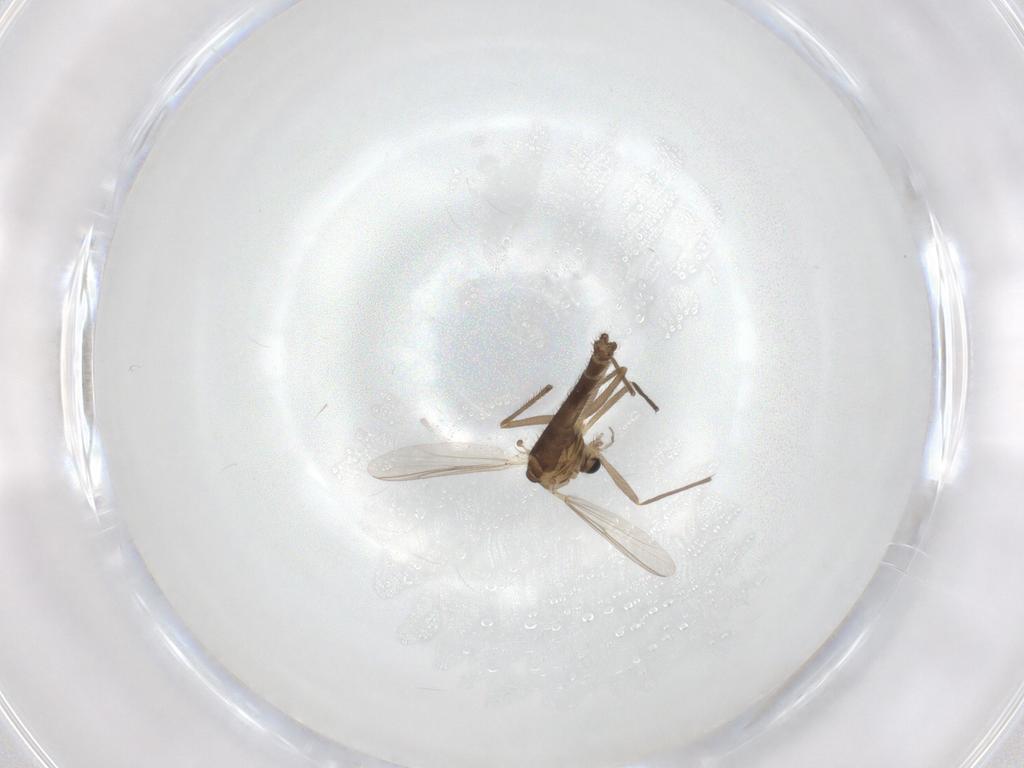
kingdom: Animalia
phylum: Arthropoda
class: Insecta
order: Diptera
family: Chironomidae
